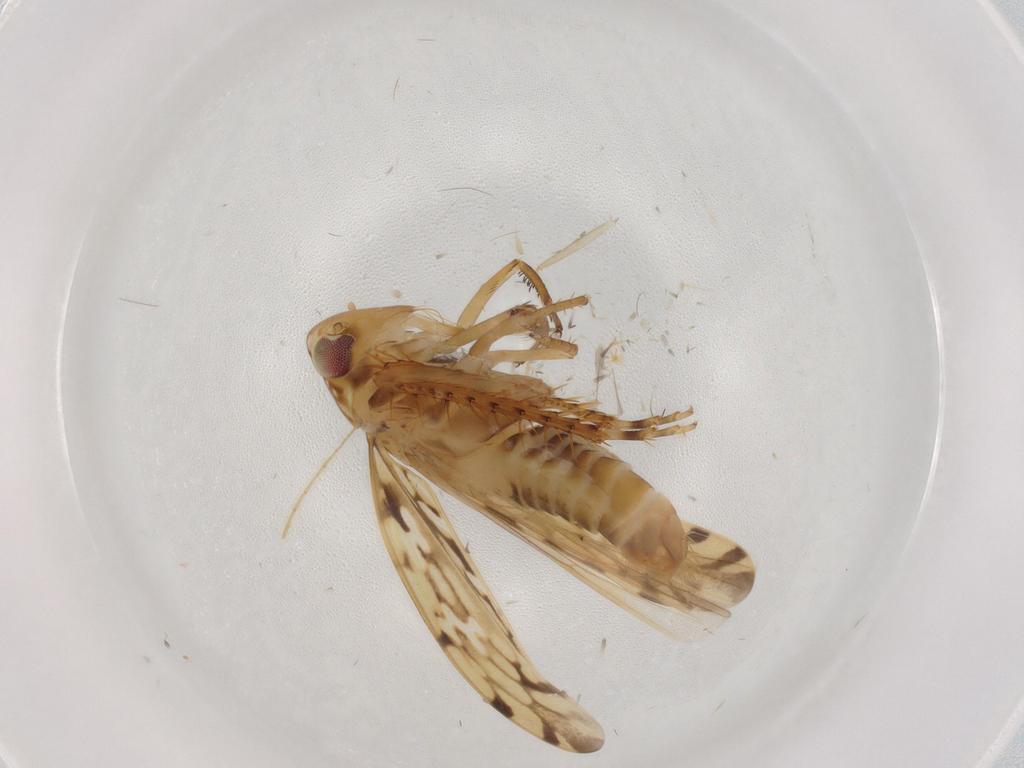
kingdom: Animalia
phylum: Arthropoda
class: Insecta
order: Hemiptera
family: Cicadellidae
